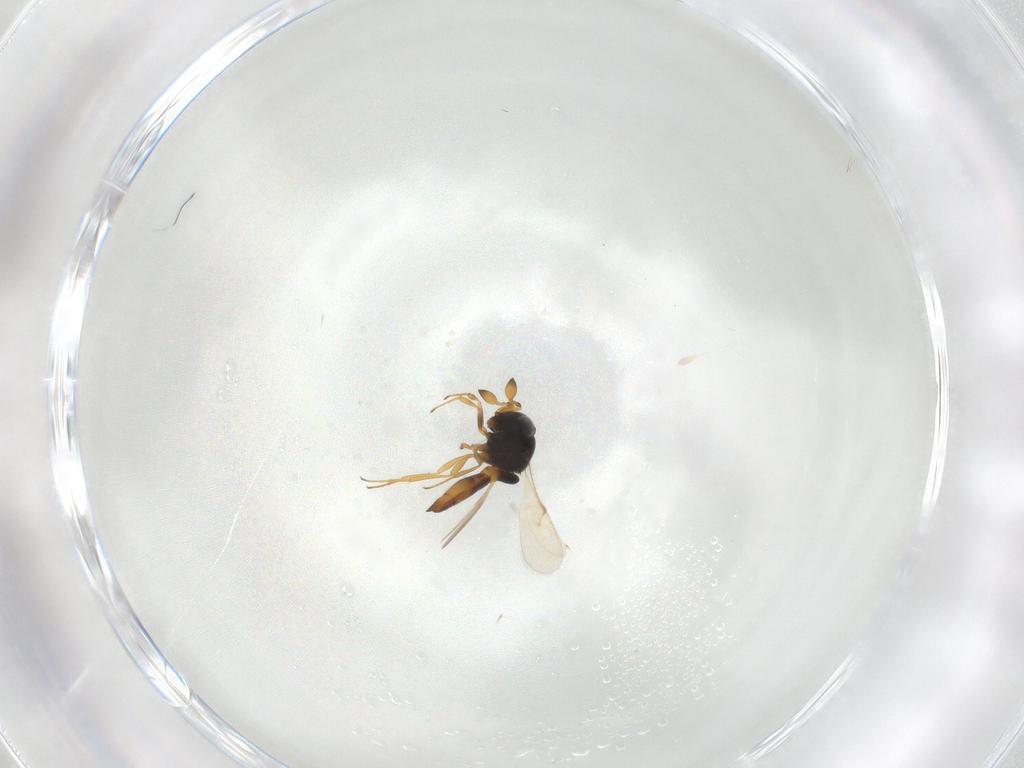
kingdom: Animalia
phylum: Arthropoda
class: Insecta
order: Hymenoptera
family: Scelionidae
